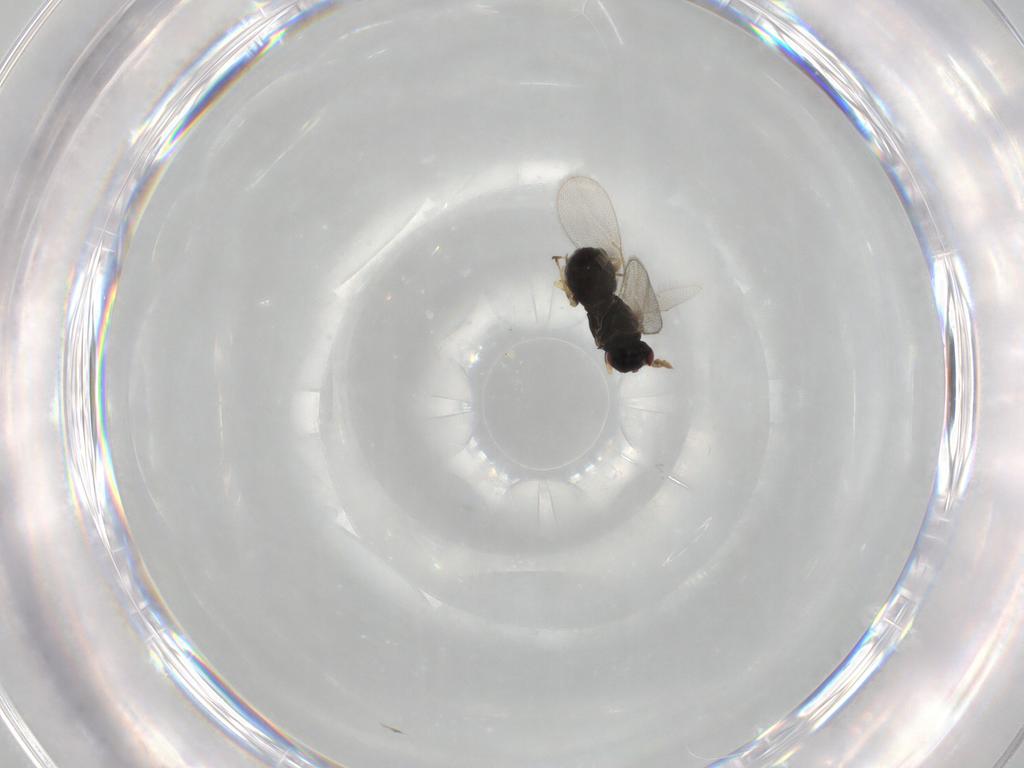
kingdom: Animalia
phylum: Arthropoda
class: Insecta
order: Hymenoptera
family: Eulophidae
